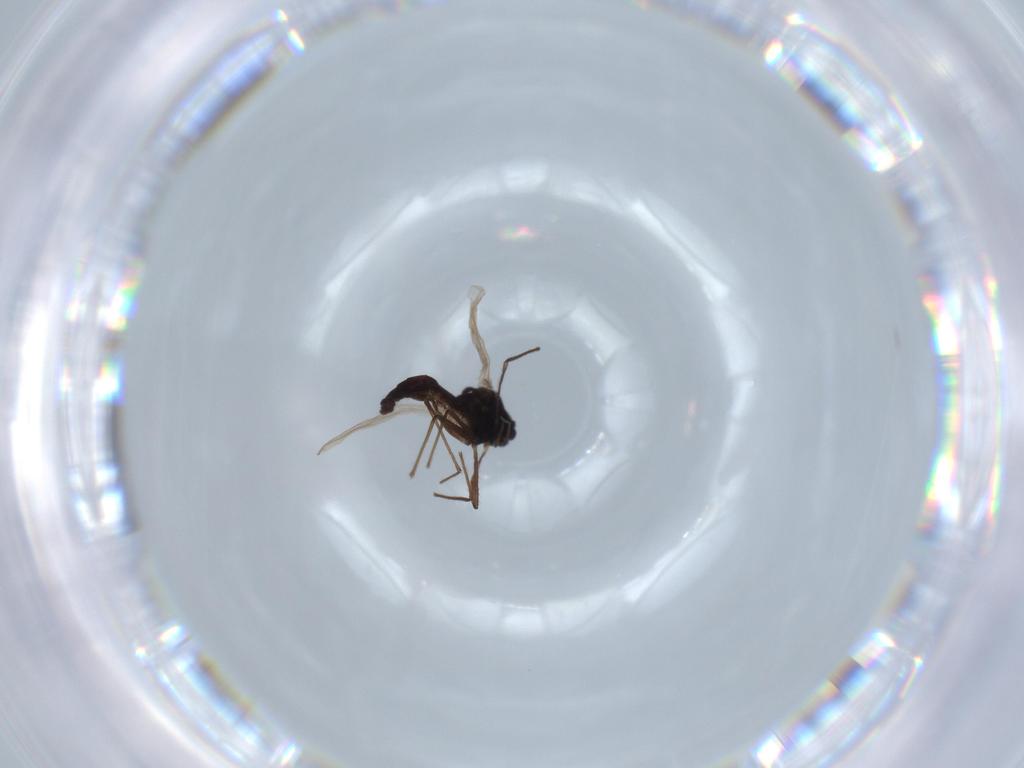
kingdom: Animalia
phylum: Arthropoda
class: Insecta
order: Diptera
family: Chironomidae
